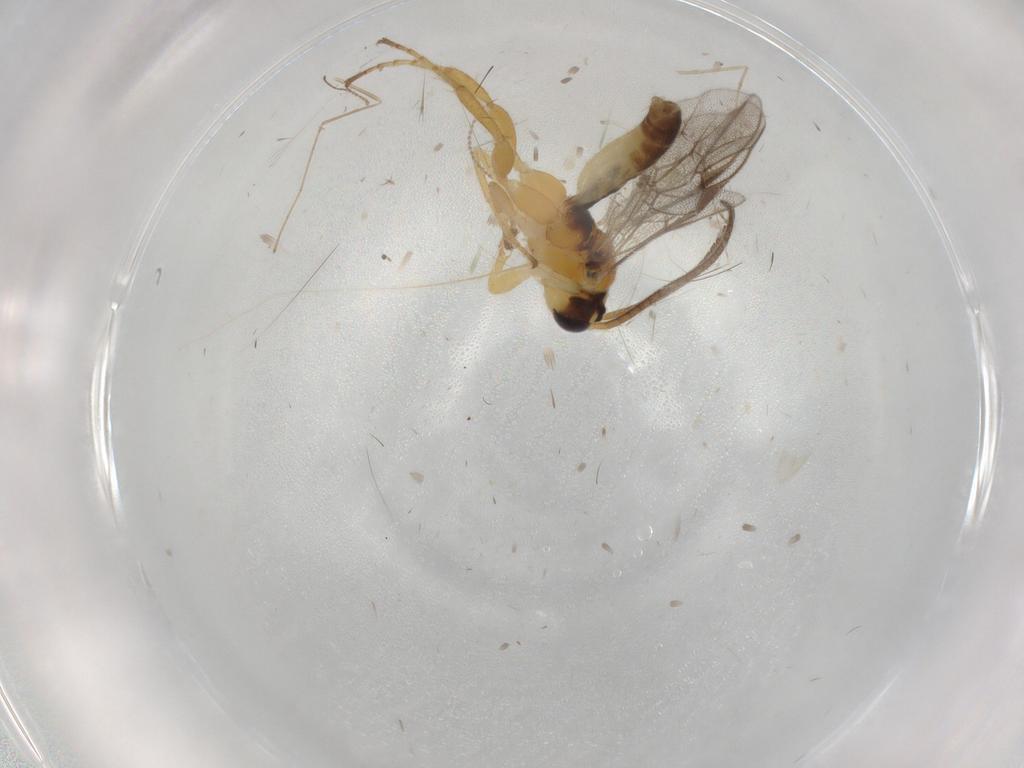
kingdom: Animalia
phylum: Arthropoda
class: Insecta
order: Hymenoptera
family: Ichneumonidae
